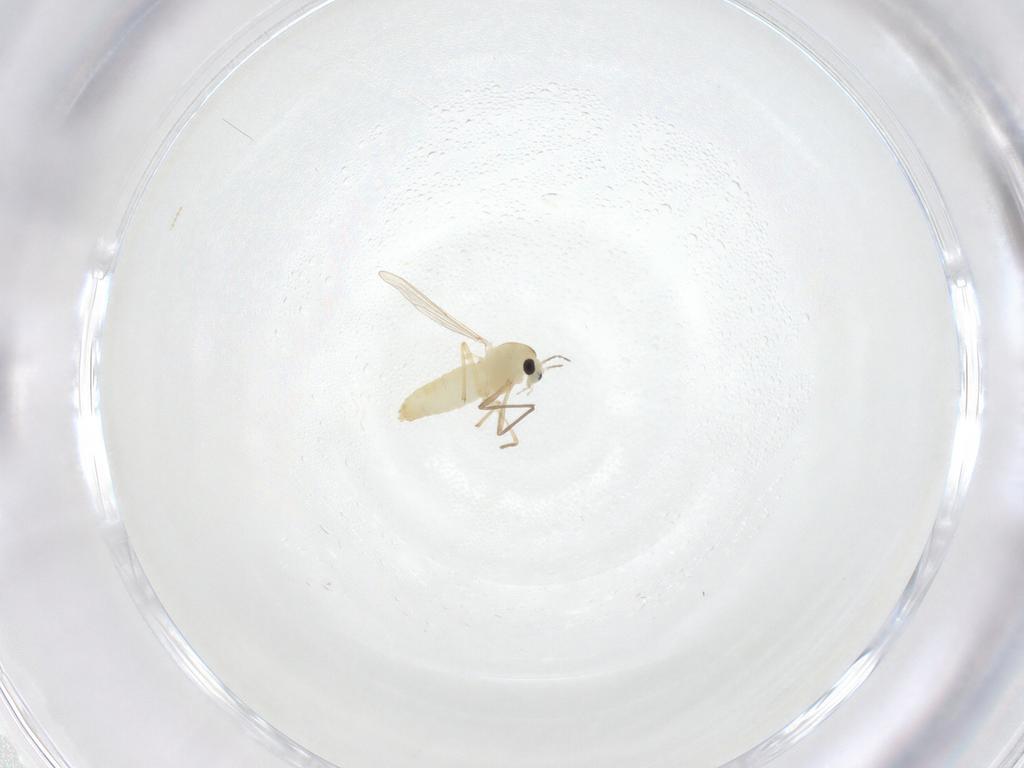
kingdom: Animalia
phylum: Arthropoda
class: Insecta
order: Diptera
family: Chironomidae
